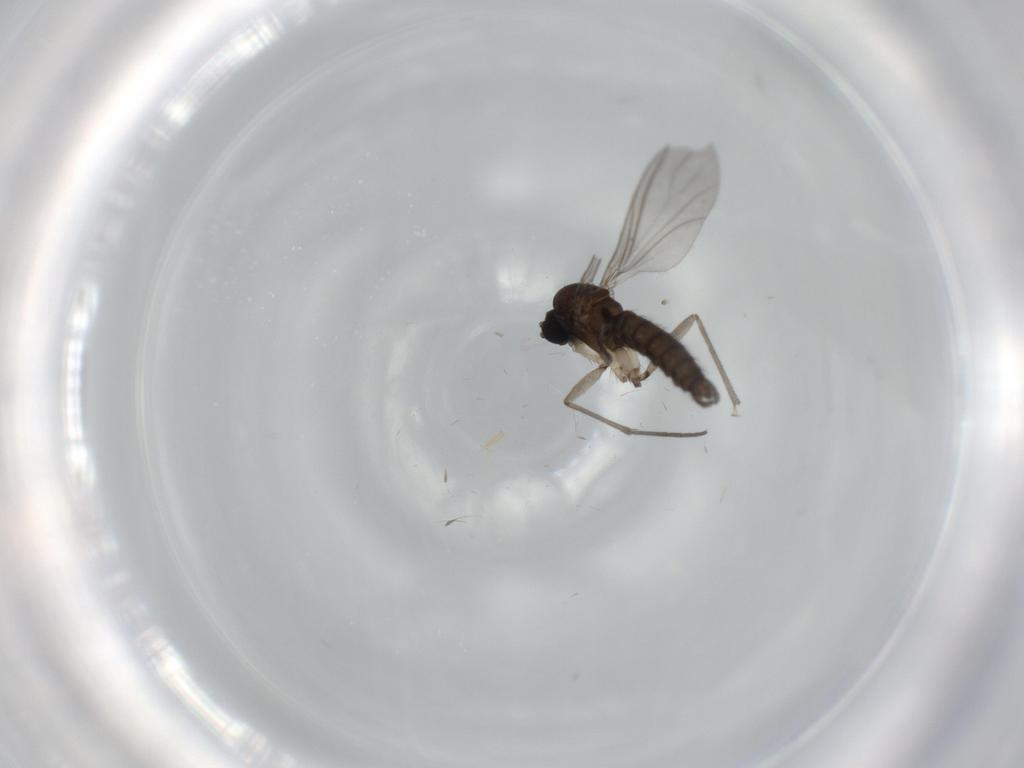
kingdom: Animalia
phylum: Arthropoda
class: Insecta
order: Diptera
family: Sciaridae
